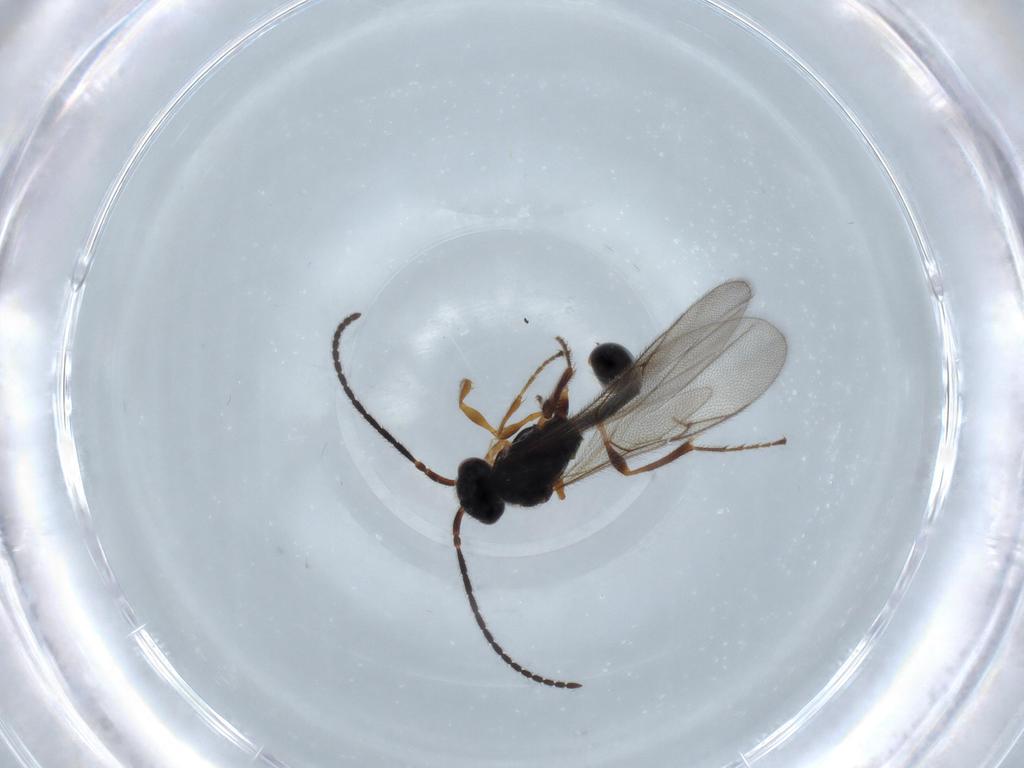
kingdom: Animalia
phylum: Arthropoda
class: Insecta
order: Hymenoptera
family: Diapriidae
